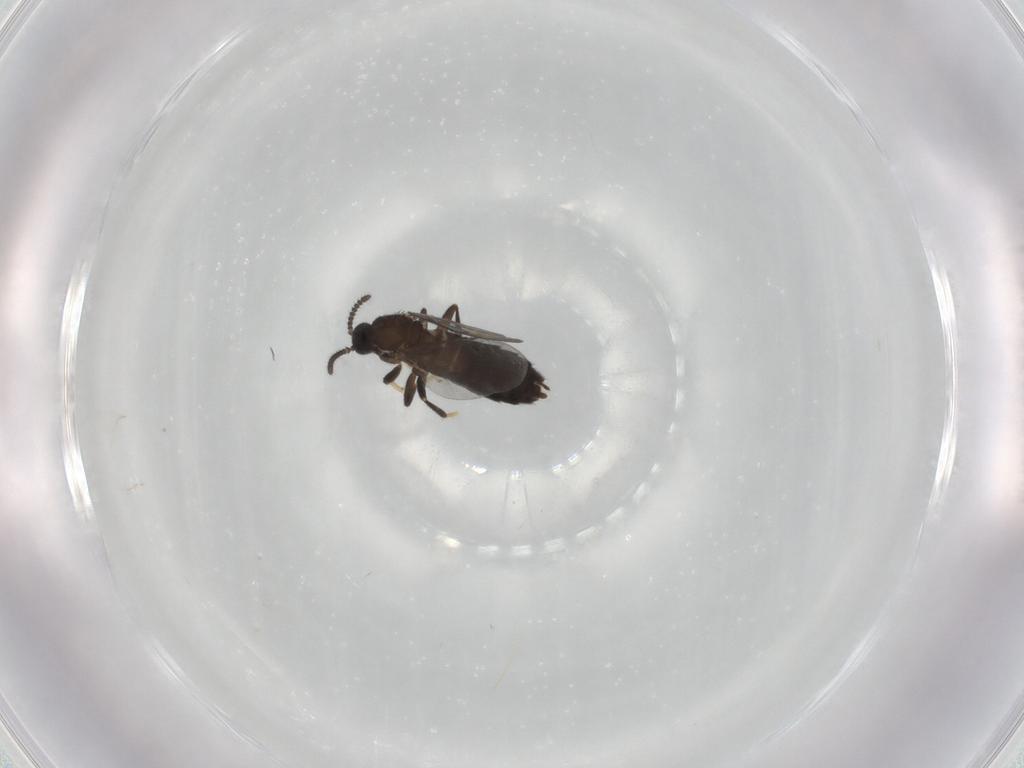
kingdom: Animalia
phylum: Arthropoda
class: Insecta
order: Diptera
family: Scatopsidae
